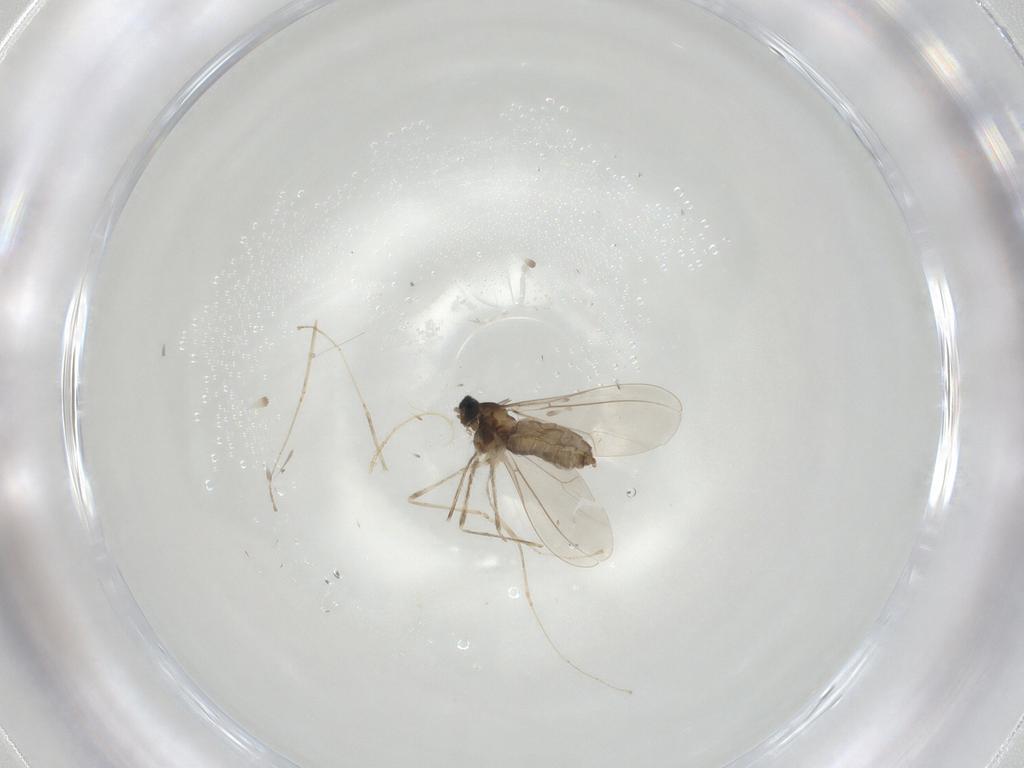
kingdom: Animalia
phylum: Arthropoda
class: Insecta
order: Diptera
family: Cecidomyiidae
